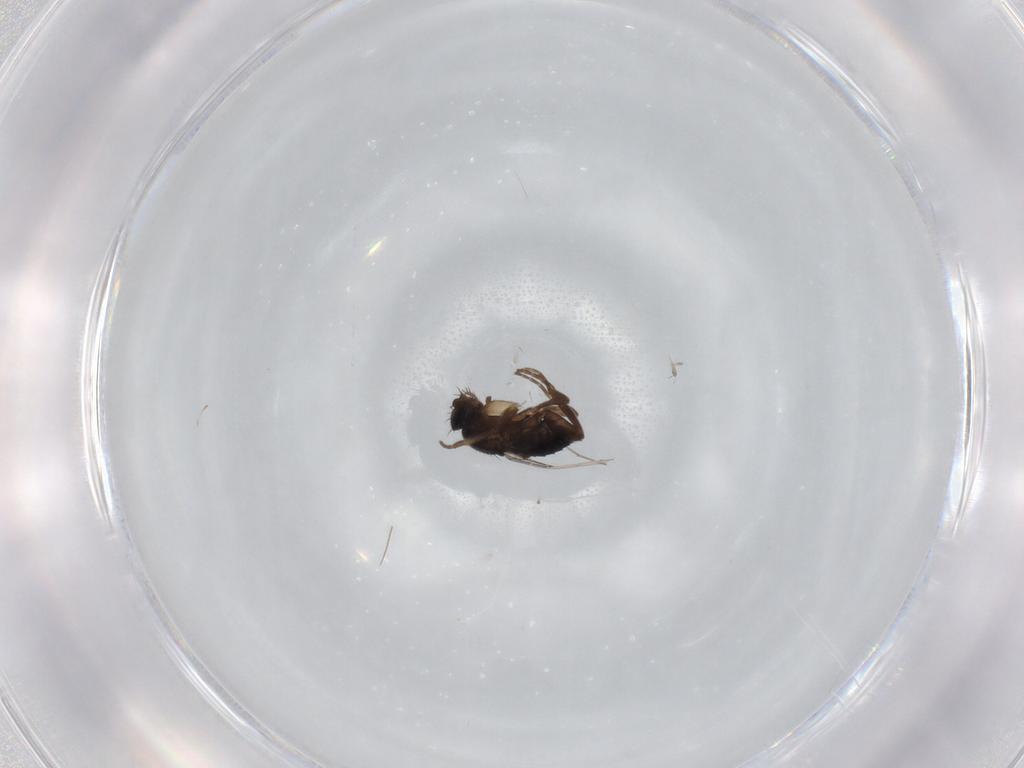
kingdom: Animalia
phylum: Arthropoda
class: Insecta
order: Diptera
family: Phoridae
